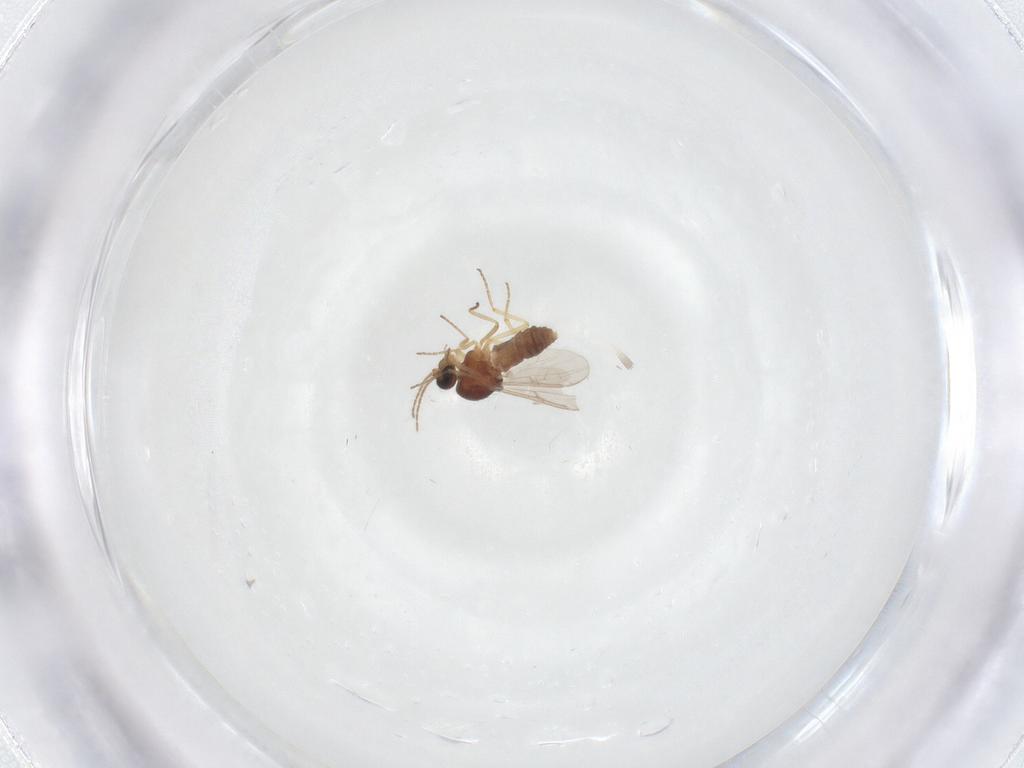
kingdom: Animalia
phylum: Arthropoda
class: Insecta
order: Diptera
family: Ceratopogonidae
